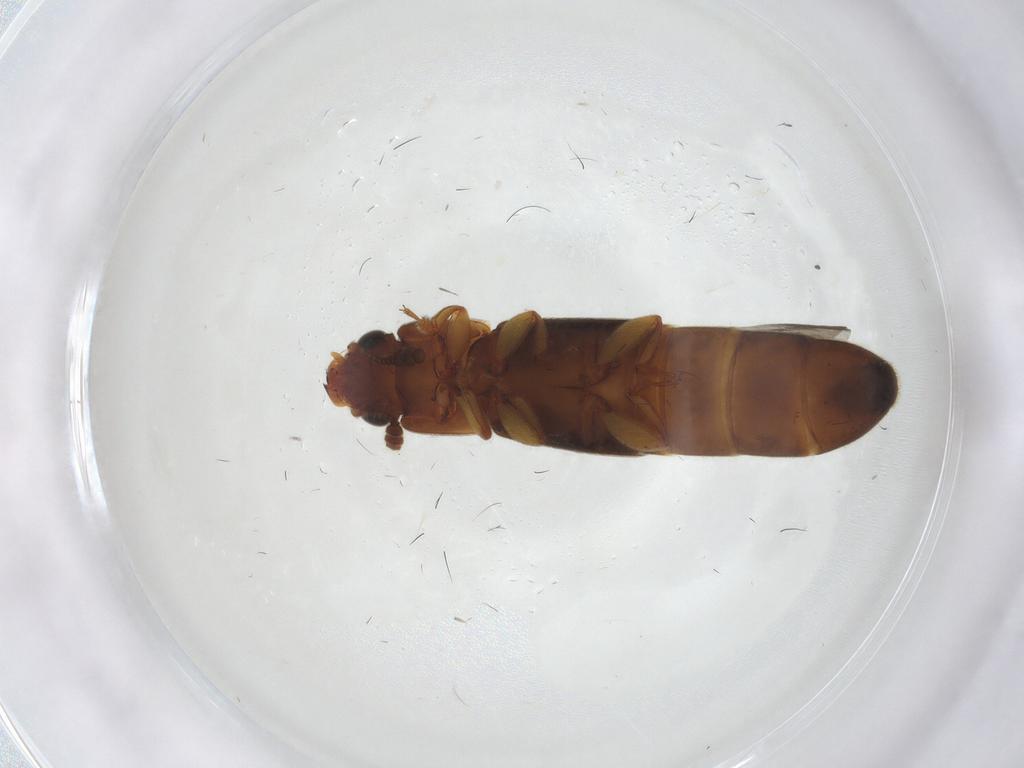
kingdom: Animalia
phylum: Arthropoda
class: Insecta
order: Coleoptera
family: Staphylinidae
